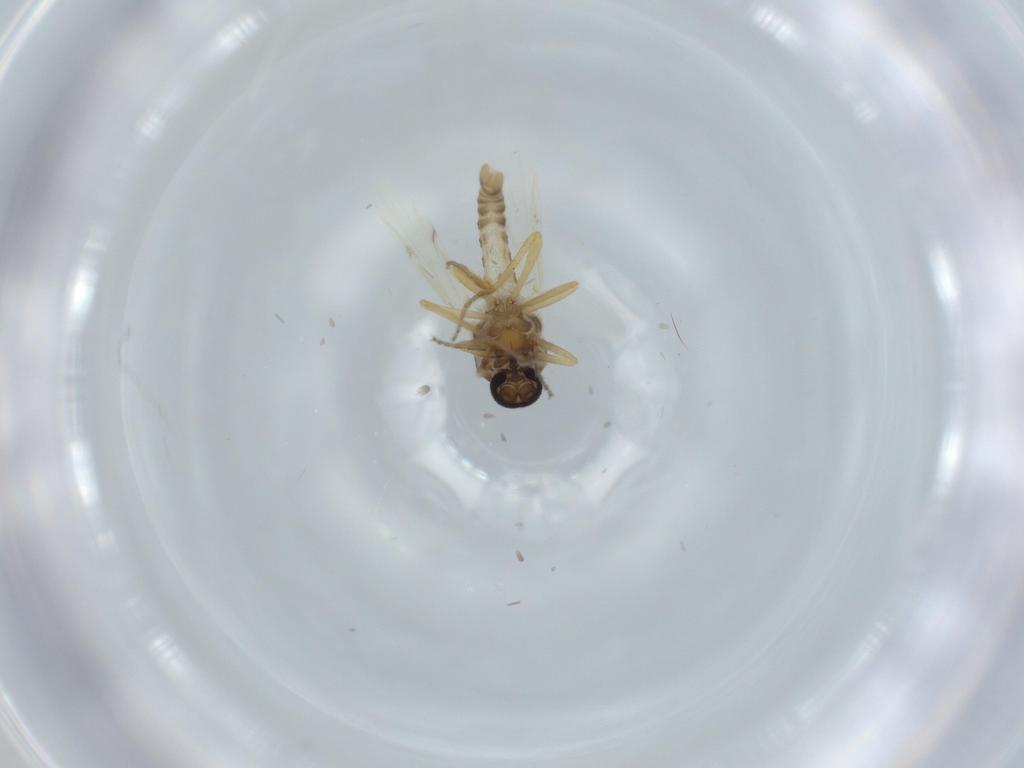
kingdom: Animalia
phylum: Arthropoda
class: Insecta
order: Diptera
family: Ceratopogonidae
